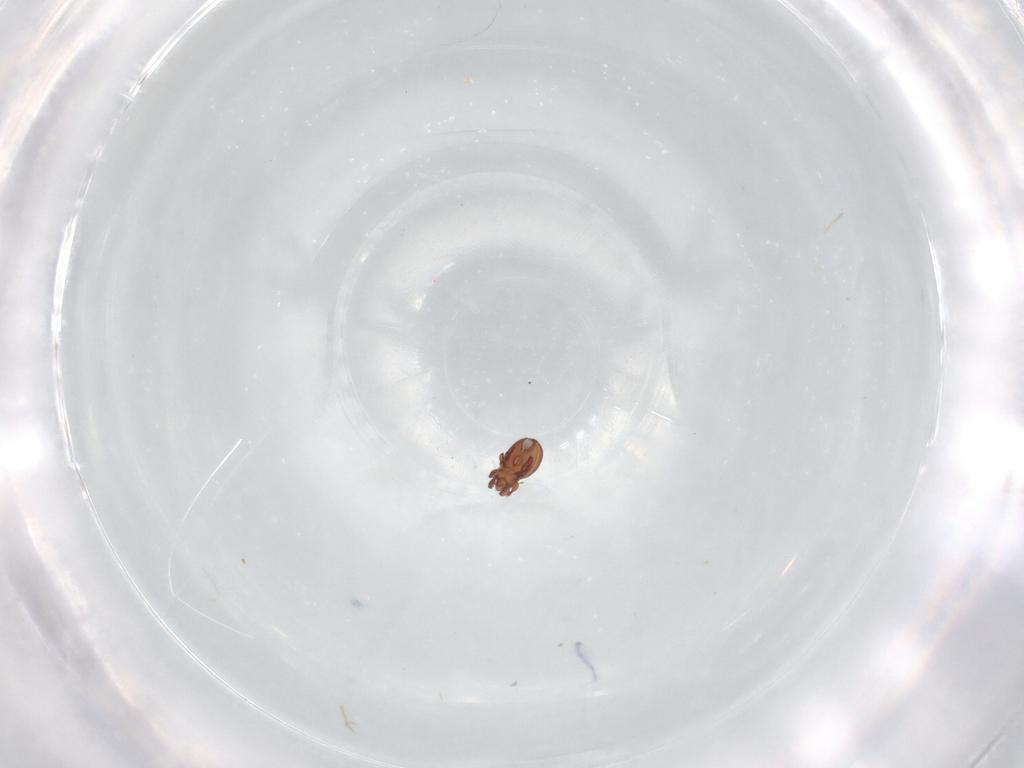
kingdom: Animalia
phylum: Arthropoda
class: Arachnida
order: Sarcoptiformes
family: Eremaeidae
